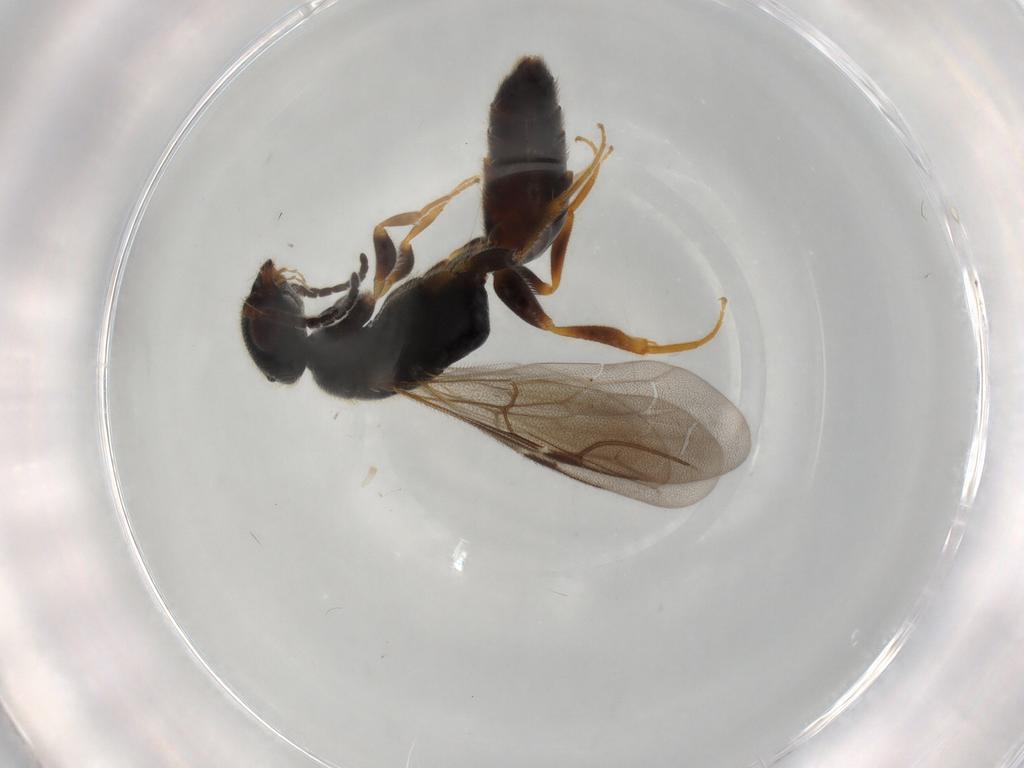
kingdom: Animalia
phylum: Arthropoda
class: Insecta
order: Hymenoptera
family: Bethylidae
